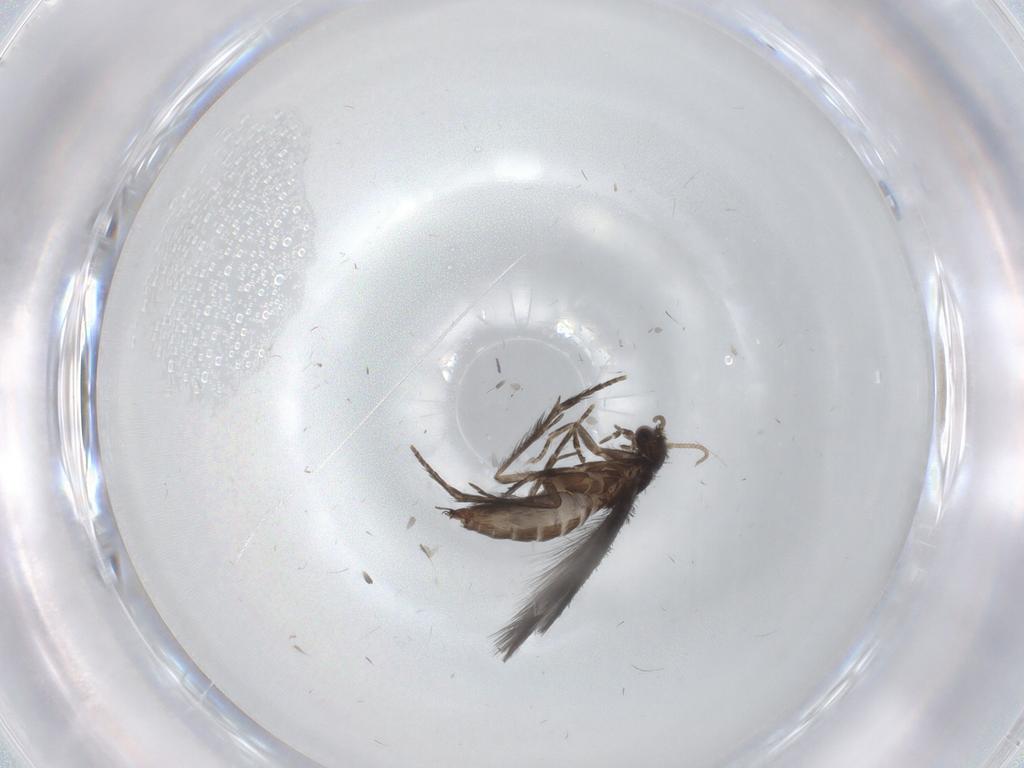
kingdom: Animalia
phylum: Arthropoda
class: Insecta
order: Trichoptera
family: Hydroptilidae
